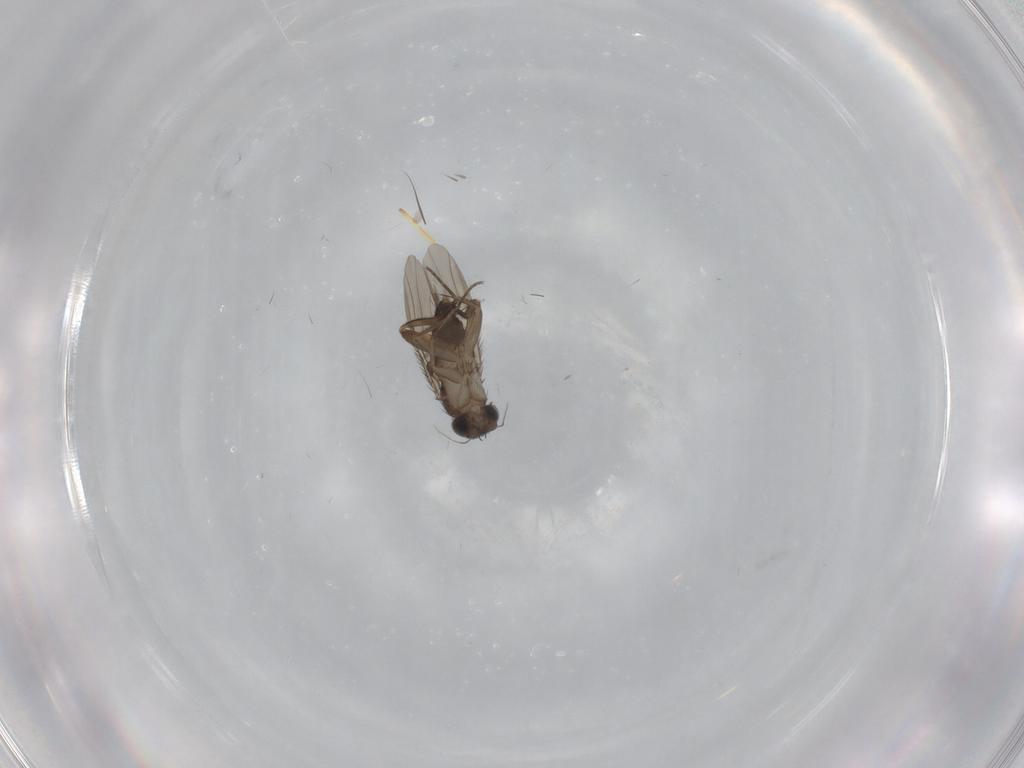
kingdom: Animalia
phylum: Arthropoda
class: Insecta
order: Diptera
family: Phoridae
